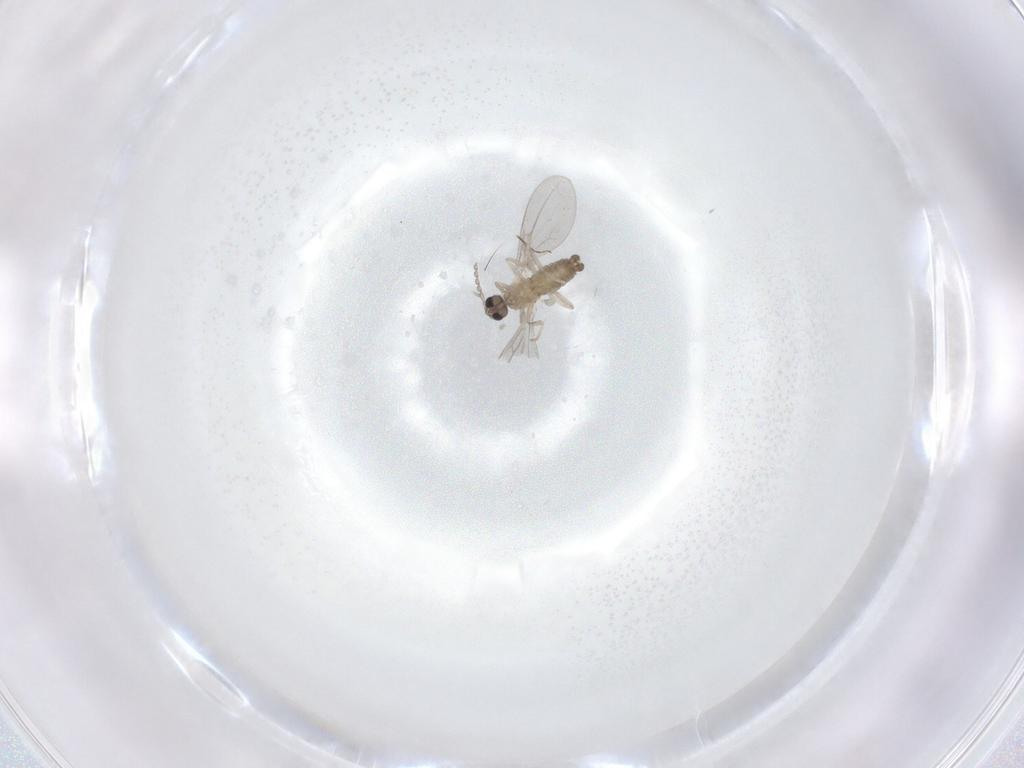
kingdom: Animalia
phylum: Arthropoda
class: Insecta
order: Diptera
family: Cecidomyiidae
